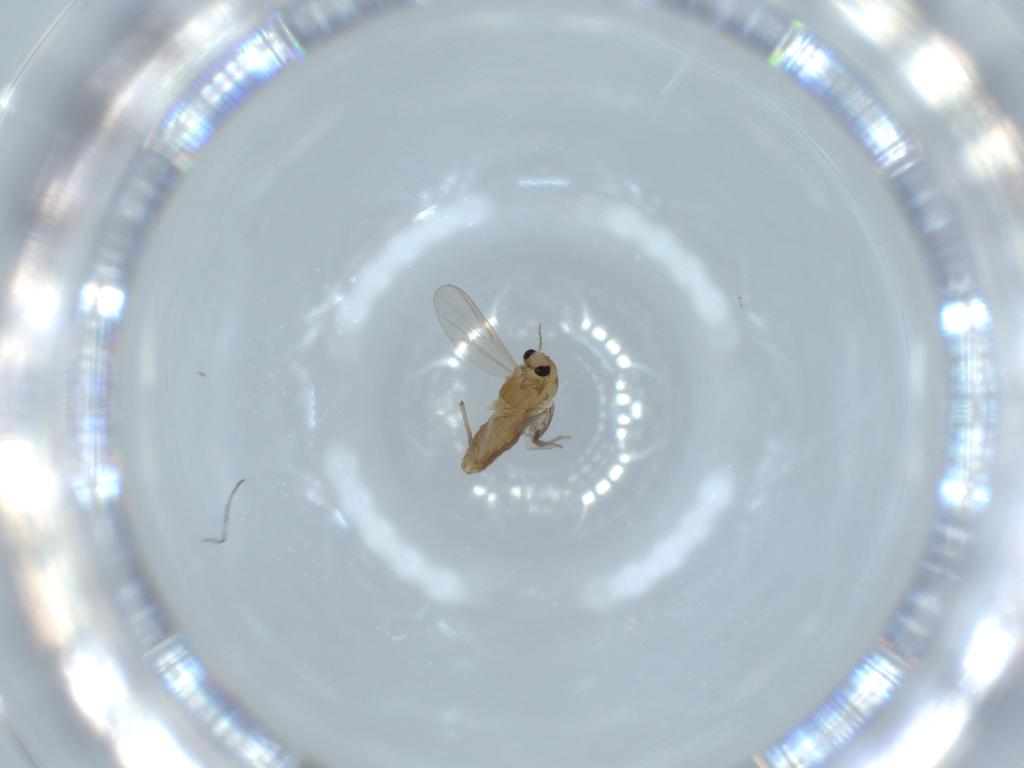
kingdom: Animalia
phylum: Arthropoda
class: Insecta
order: Diptera
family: Chironomidae
